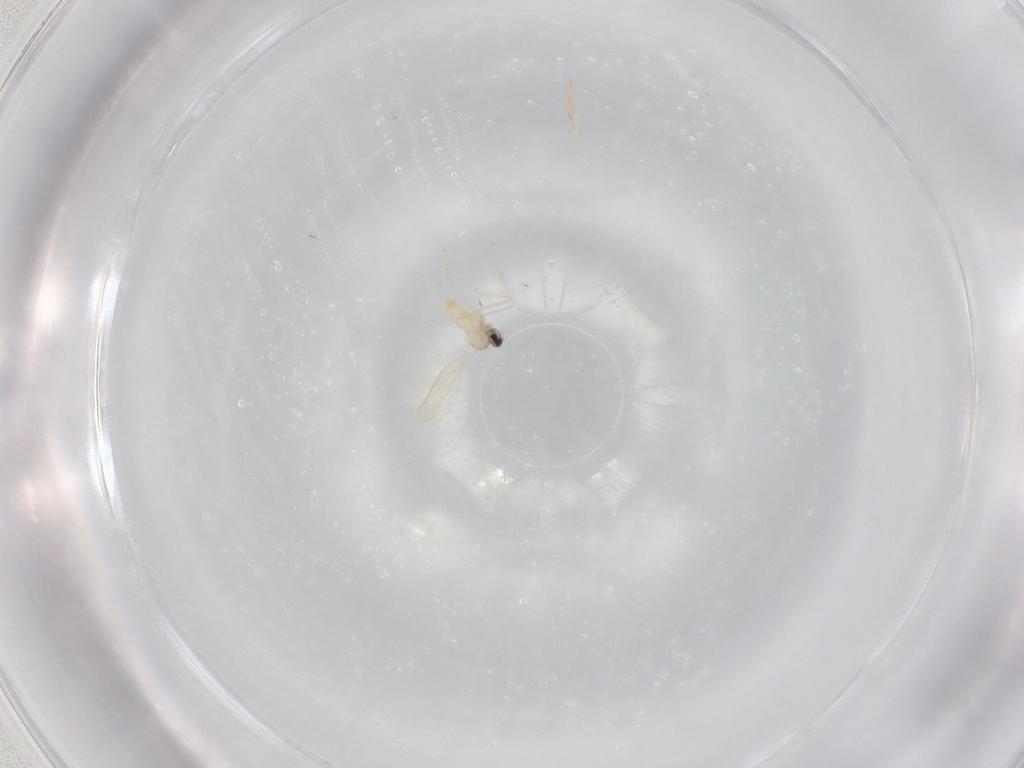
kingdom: Animalia
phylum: Arthropoda
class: Insecta
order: Diptera
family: Cecidomyiidae
